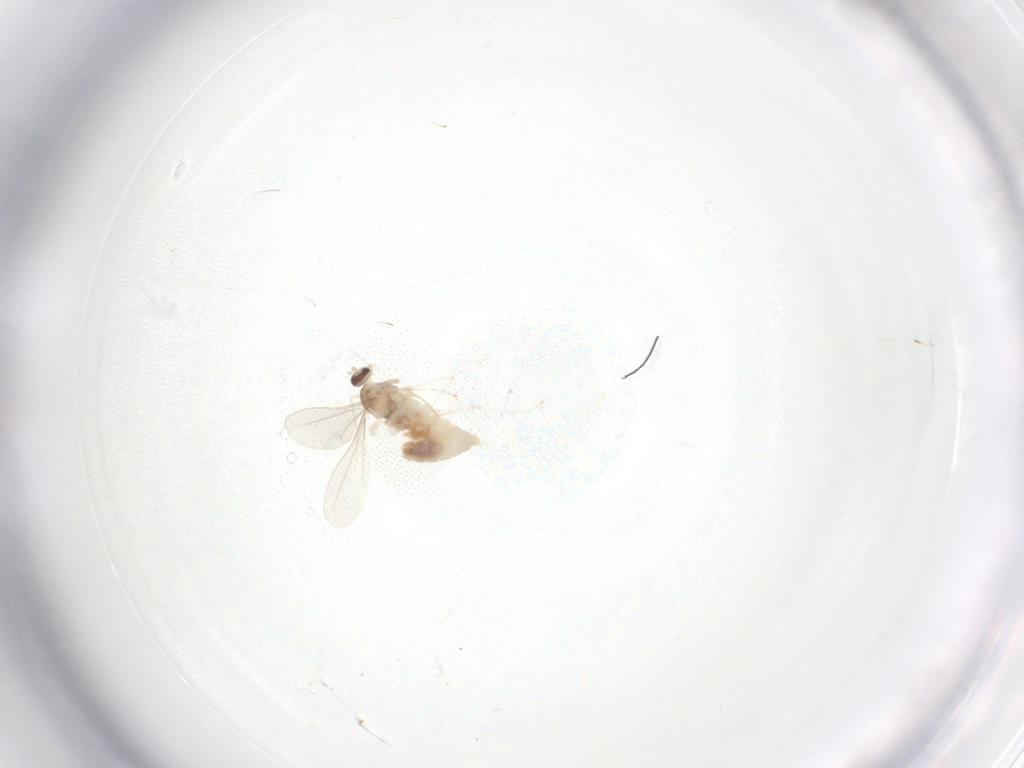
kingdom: Animalia
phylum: Arthropoda
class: Insecta
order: Diptera
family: Cecidomyiidae
